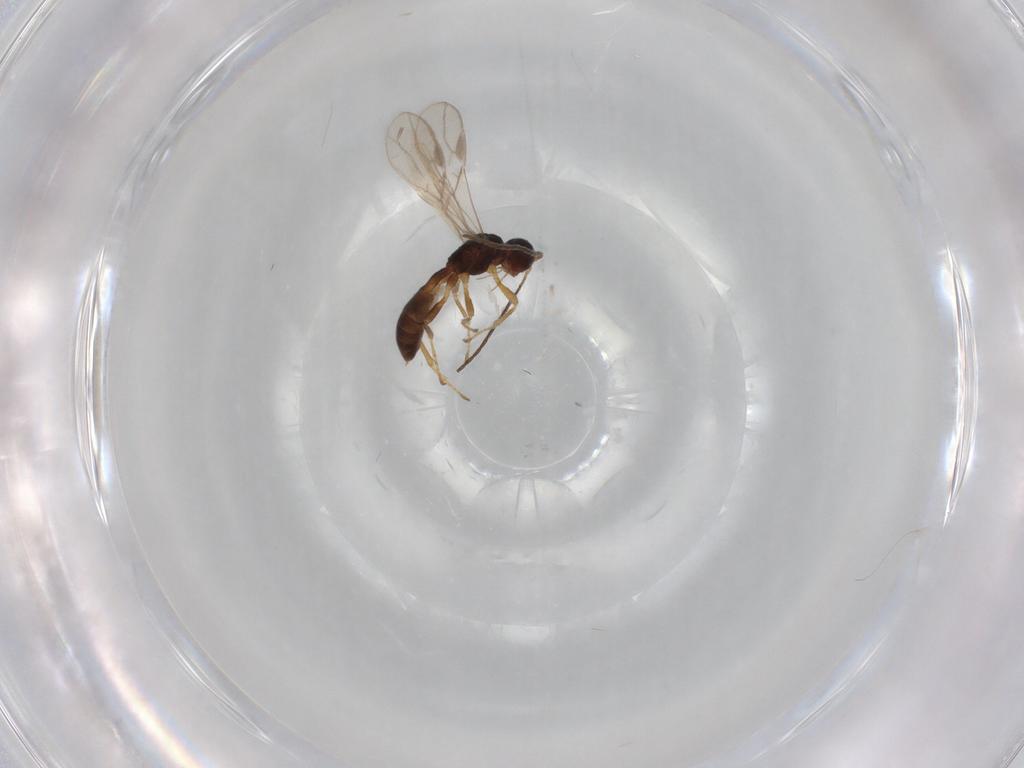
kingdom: Animalia
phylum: Arthropoda
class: Insecta
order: Hymenoptera
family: Braconidae
